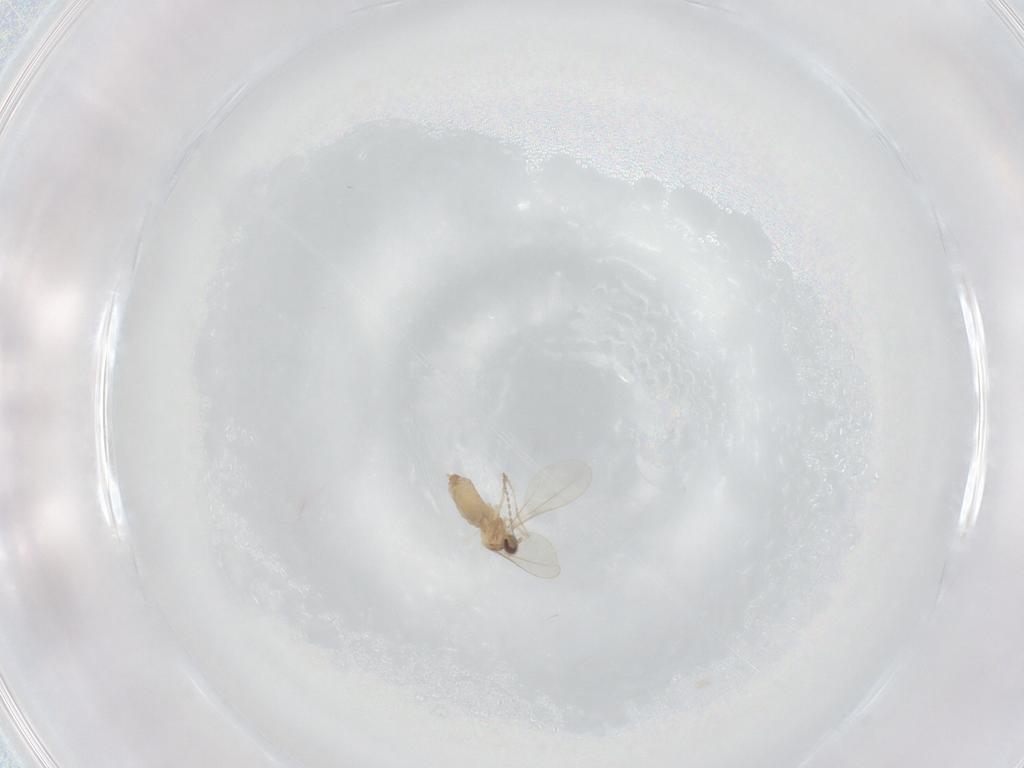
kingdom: Animalia
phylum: Arthropoda
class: Insecta
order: Diptera
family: Cecidomyiidae
